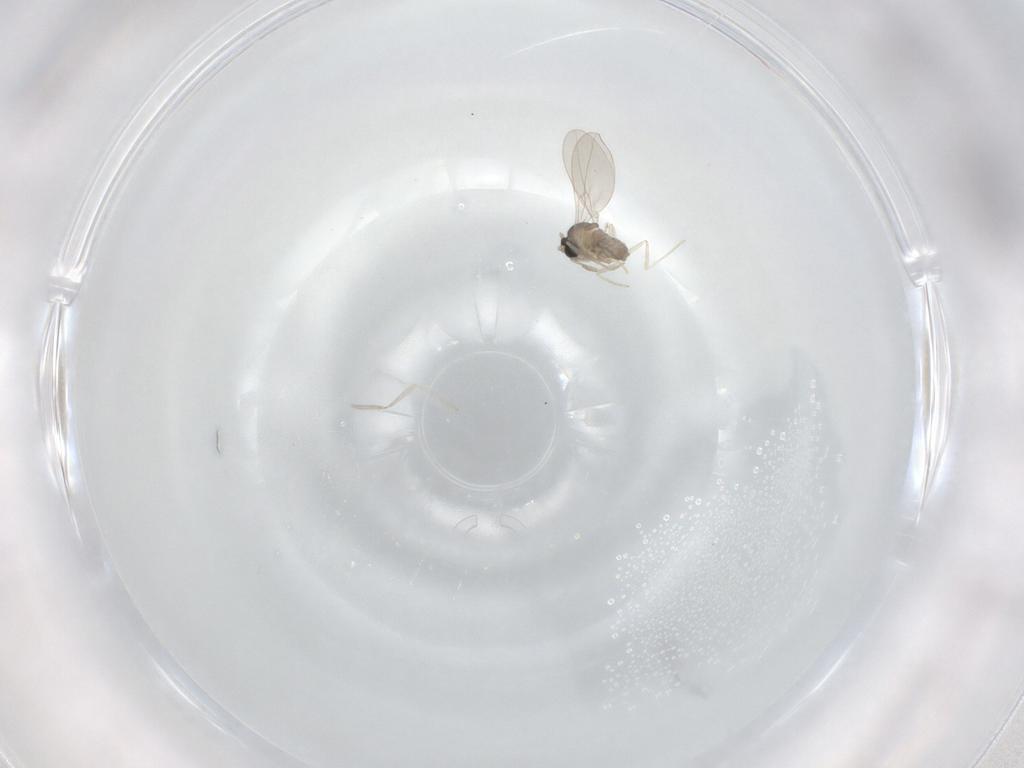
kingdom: Animalia
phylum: Arthropoda
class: Insecta
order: Diptera
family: Cecidomyiidae
